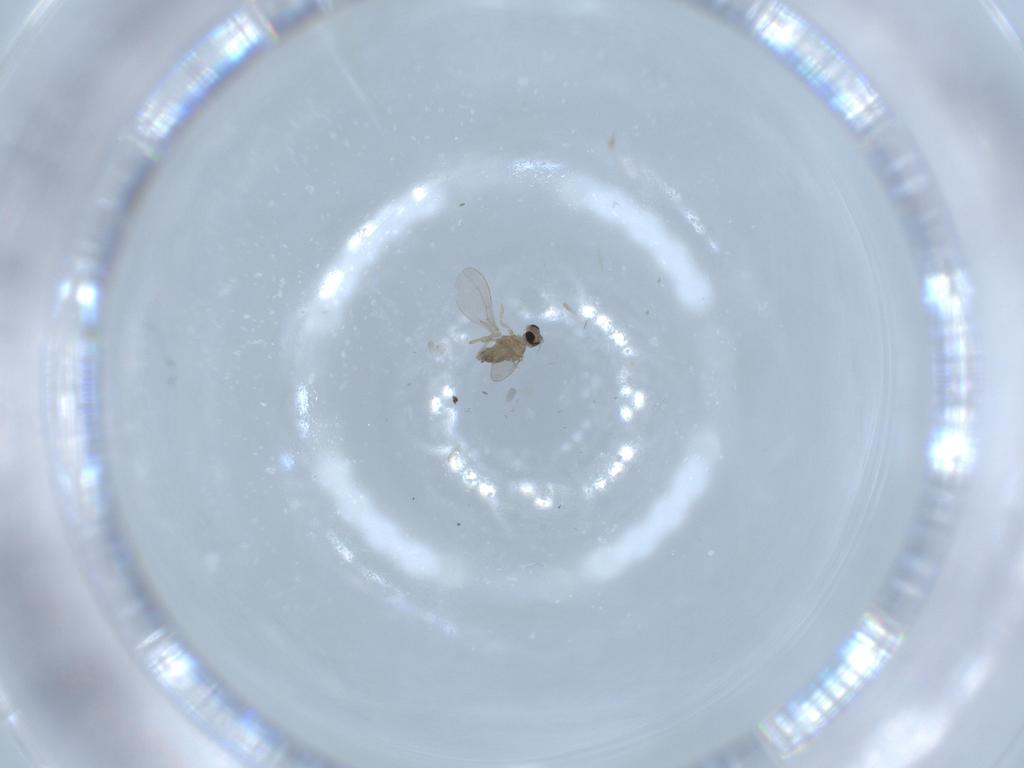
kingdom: Animalia
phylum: Arthropoda
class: Insecta
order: Diptera
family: Cecidomyiidae
